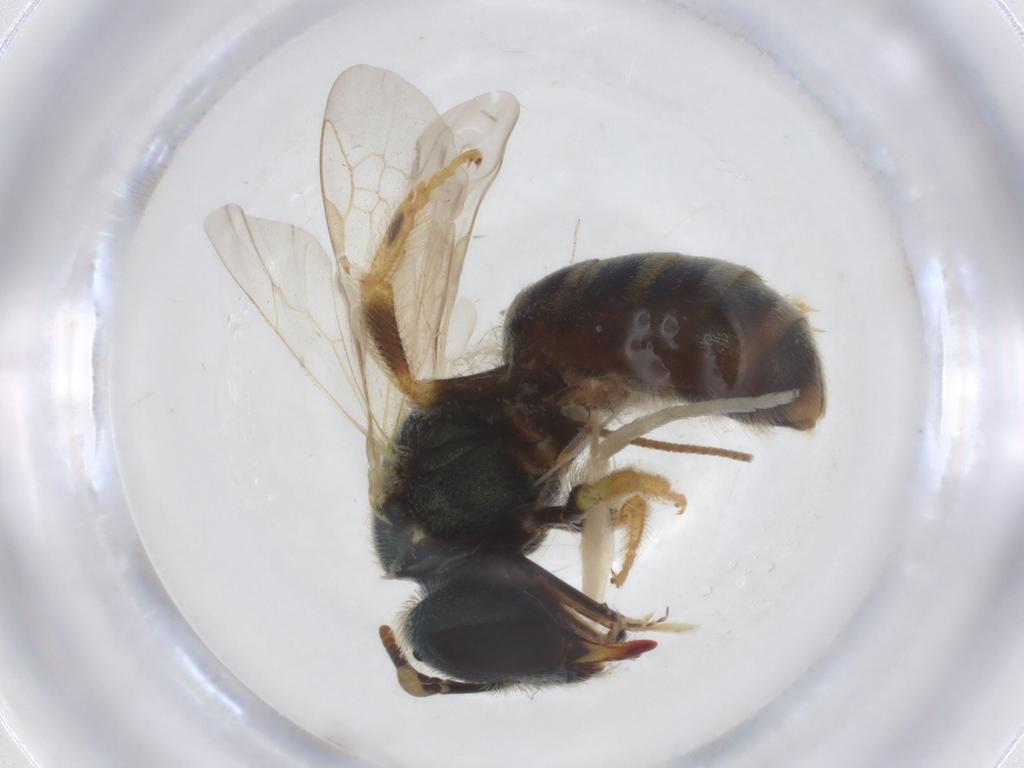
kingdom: Animalia
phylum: Arthropoda
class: Insecta
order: Hymenoptera
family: Halictidae
